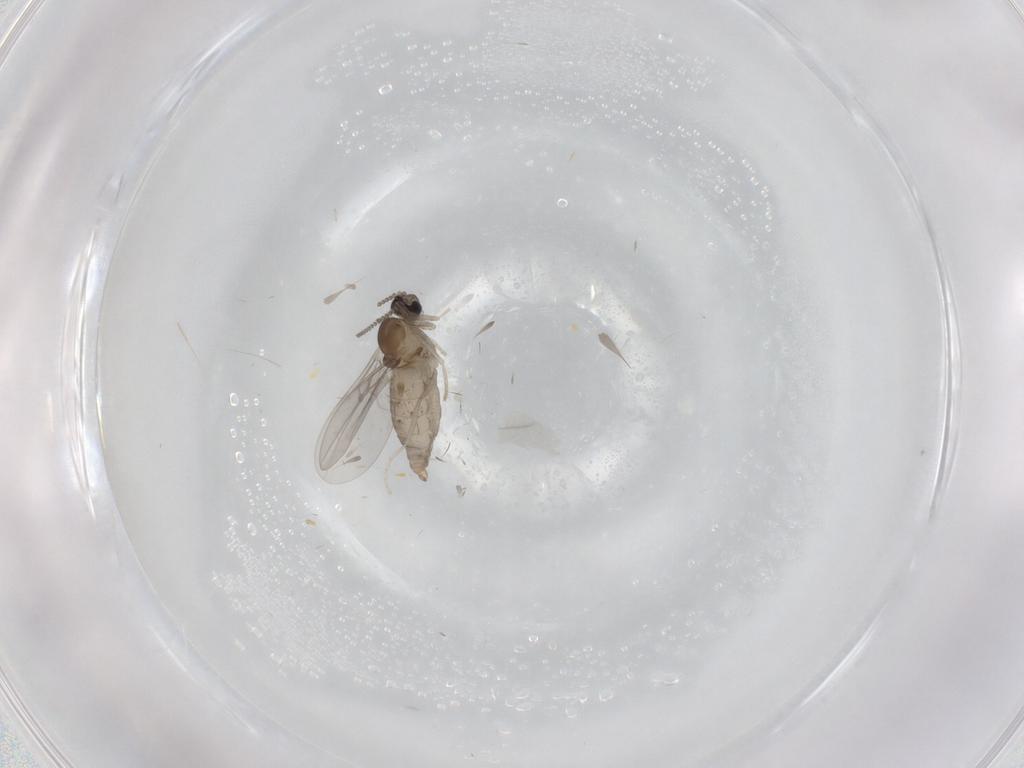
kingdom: Animalia
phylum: Arthropoda
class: Insecta
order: Diptera
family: Cecidomyiidae
